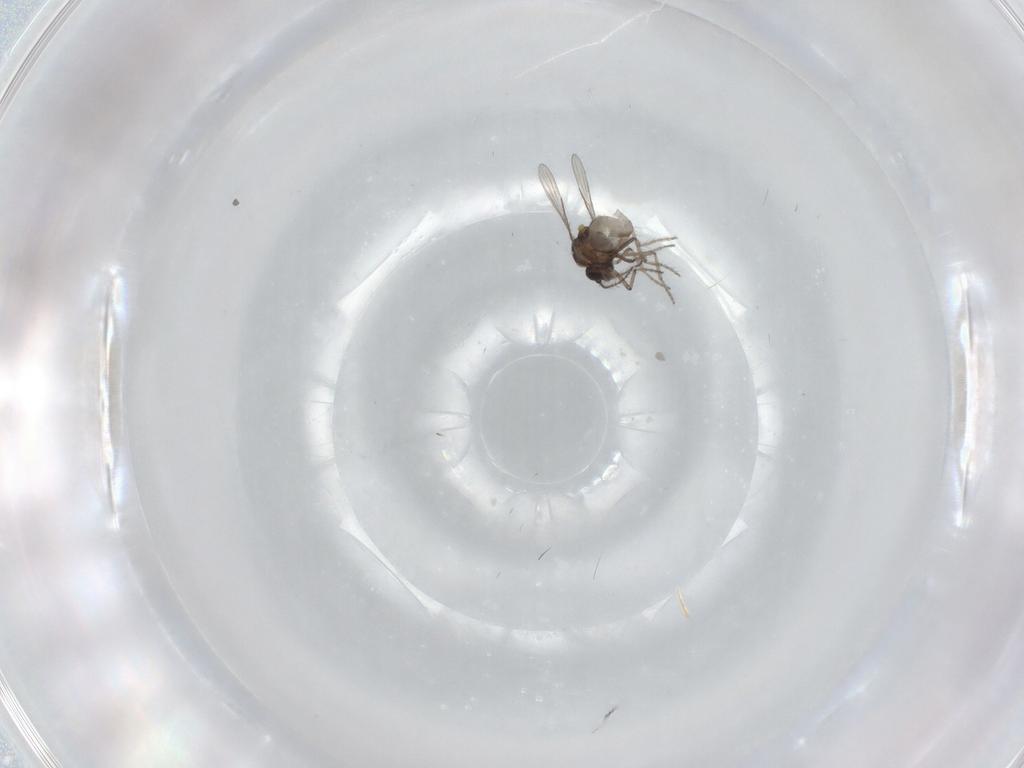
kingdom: Animalia
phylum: Arthropoda
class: Insecta
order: Diptera
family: Ceratopogonidae
